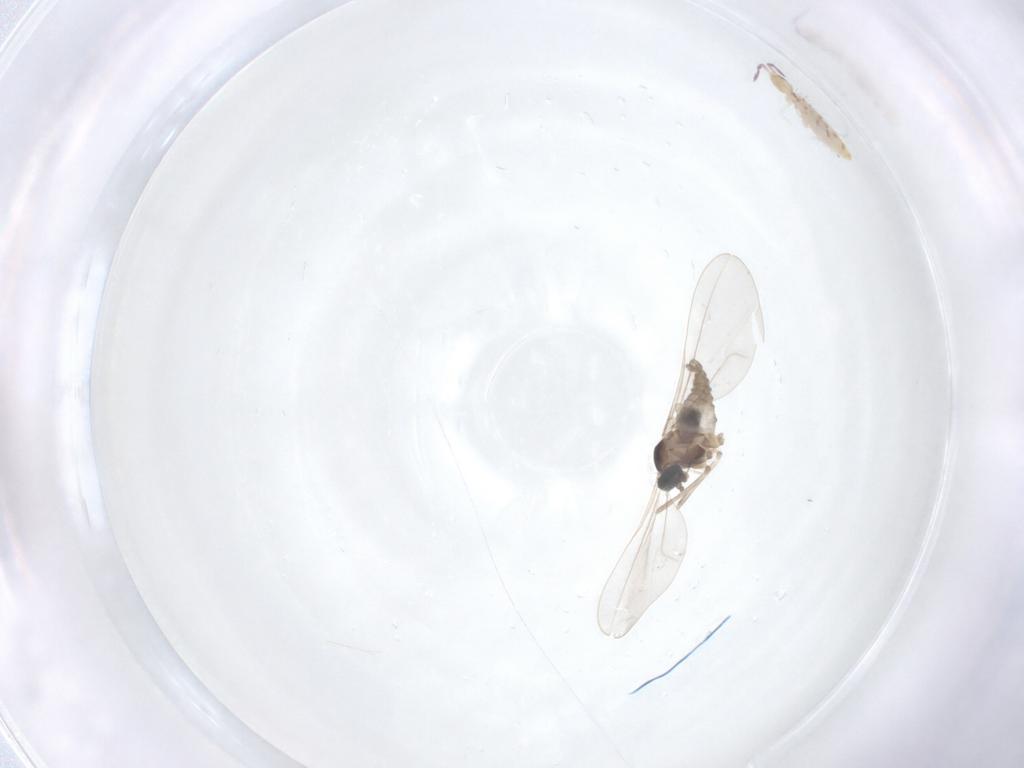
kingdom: Animalia
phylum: Arthropoda
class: Insecta
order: Diptera
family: Cecidomyiidae
